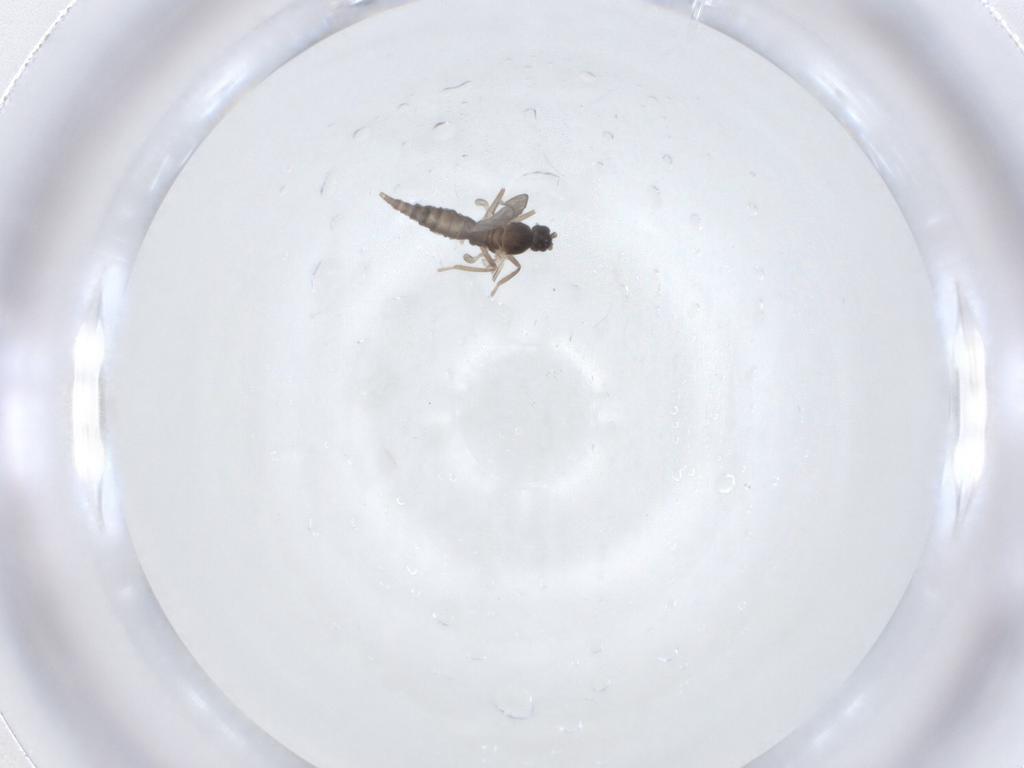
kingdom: Animalia
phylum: Arthropoda
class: Insecta
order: Diptera
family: Cecidomyiidae
